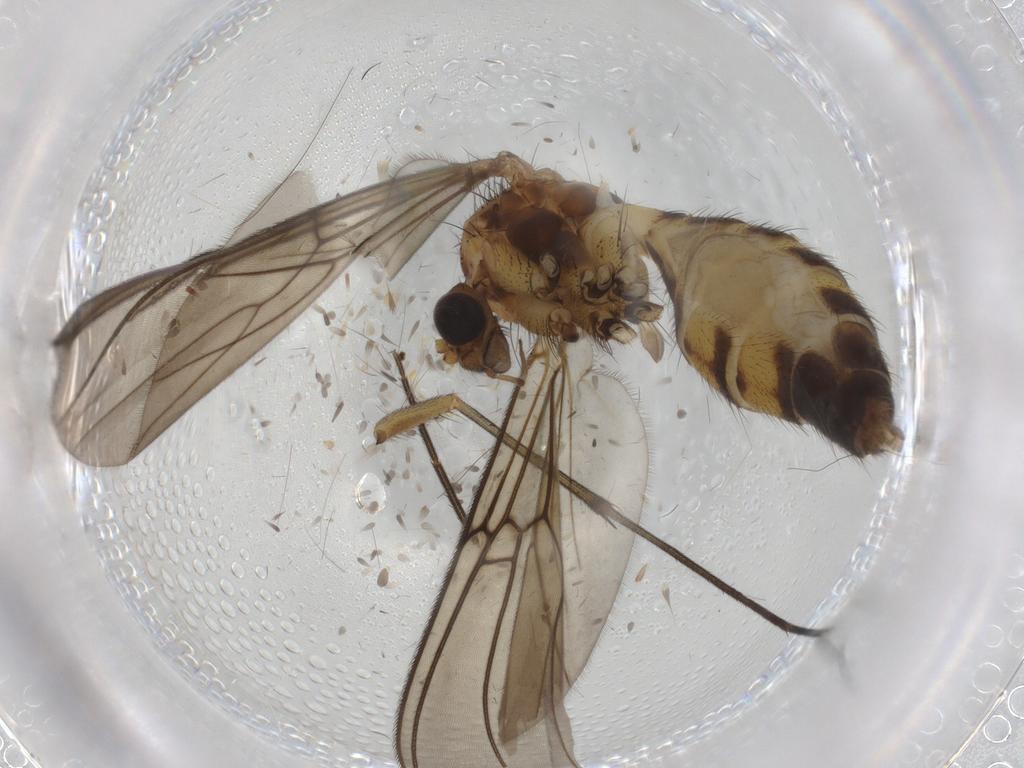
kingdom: Animalia
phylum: Arthropoda
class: Insecta
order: Diptera
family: Mycetophilidae
